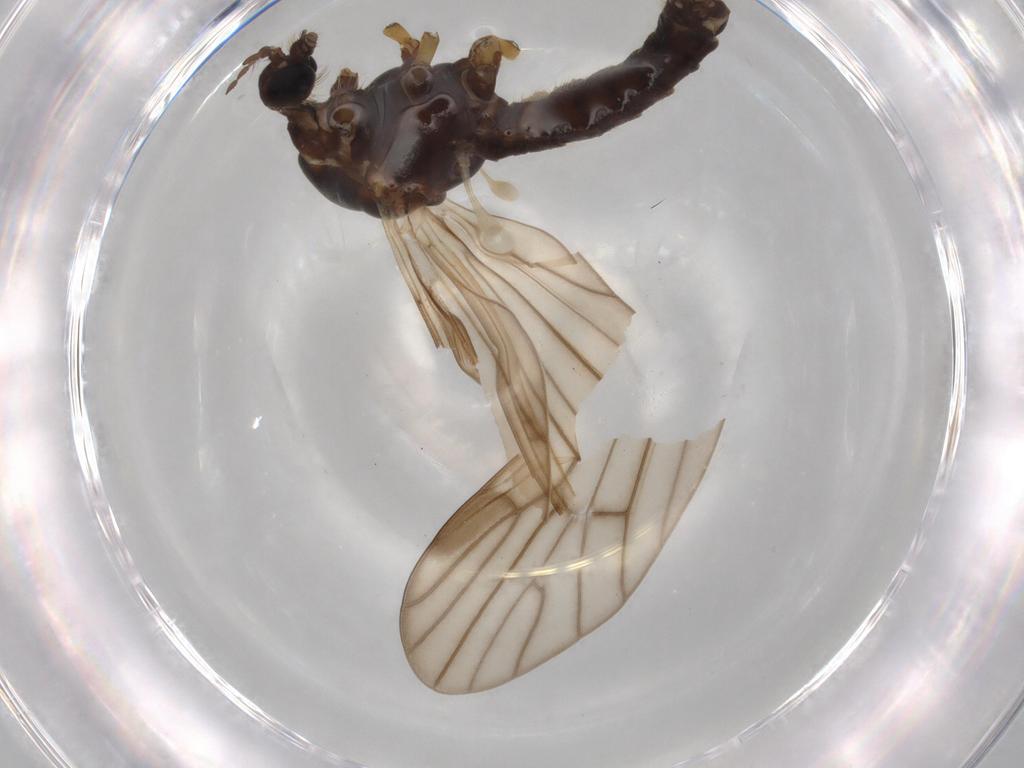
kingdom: Animalia
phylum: Arthropoda
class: Insecta
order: Diptera
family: Sphaeroceridae
